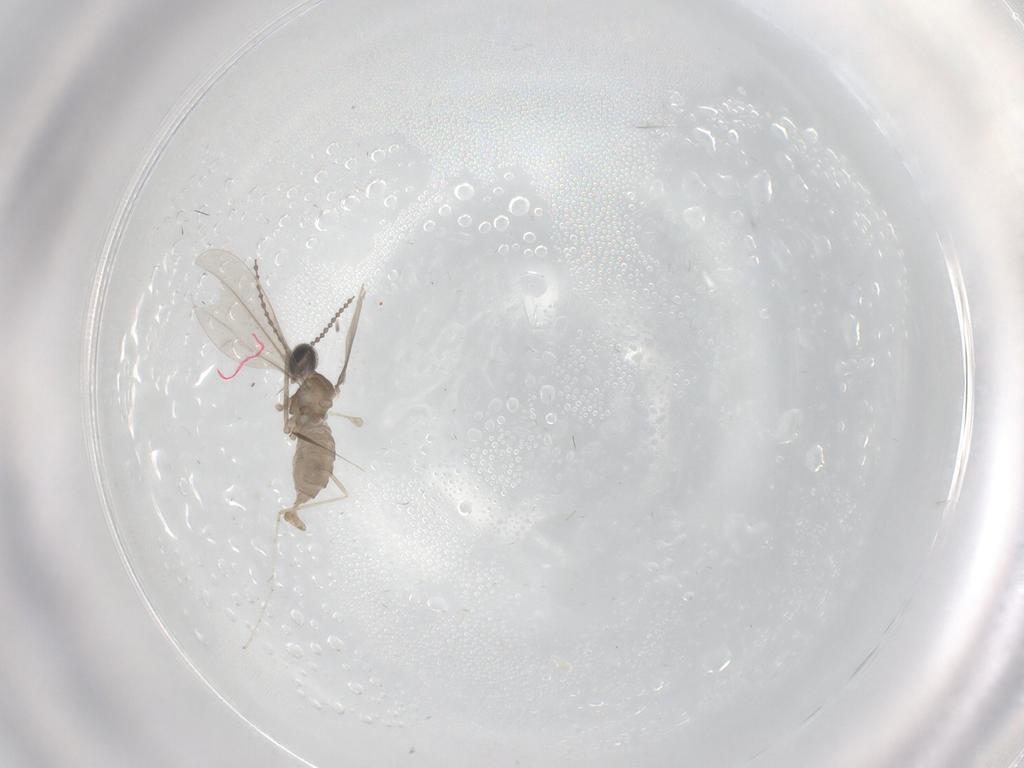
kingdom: Animalia
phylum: Arthropoda
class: Insecta
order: Diptera
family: Cecidomyiidae
